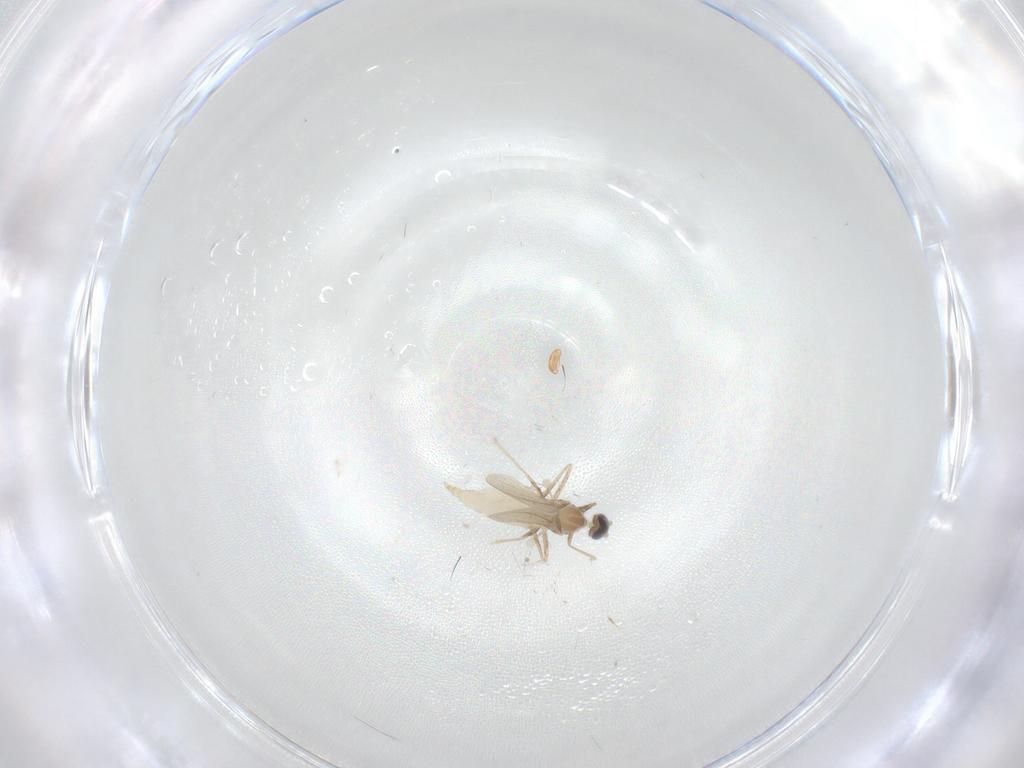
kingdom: Animalia
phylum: Arthropoda
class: Insecta
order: Diptera
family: Cecidomyiidae
